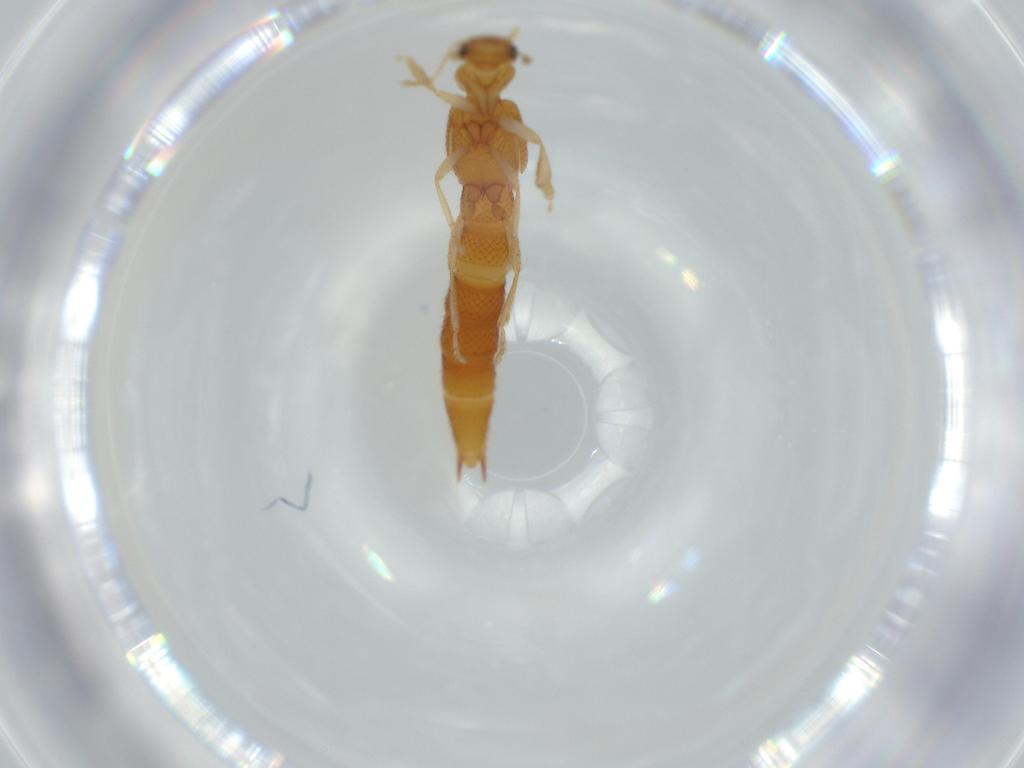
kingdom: Animalia
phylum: Arthropoda
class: Insecta
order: Coleoptera
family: Staphylinidae
